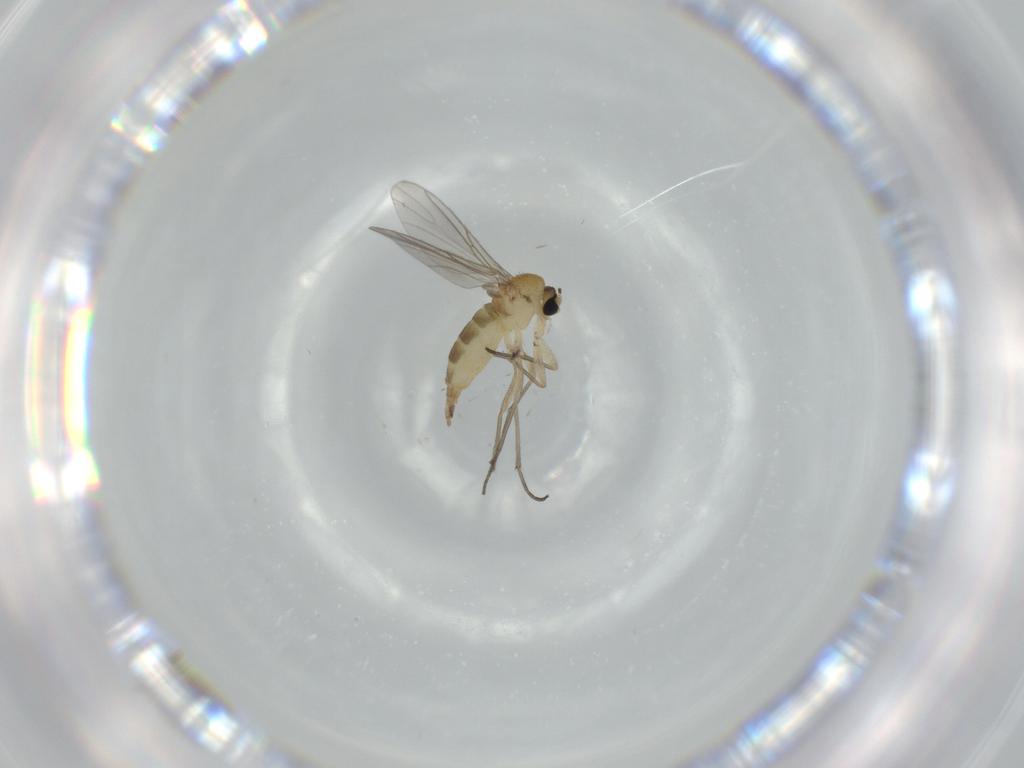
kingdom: Animalia
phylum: Arthropoda
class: Insecta
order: Diptera
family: Sciaridae
